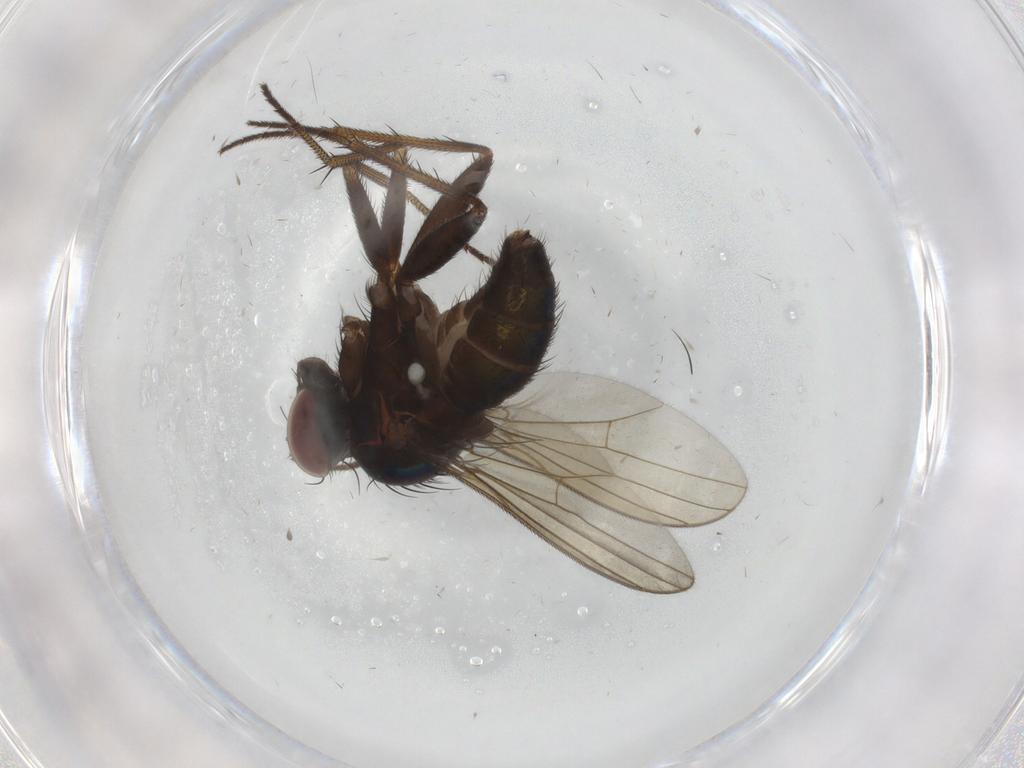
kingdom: Animalia
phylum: Arthropoda
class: Insecta
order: Diptera
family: Dolichopodidae
